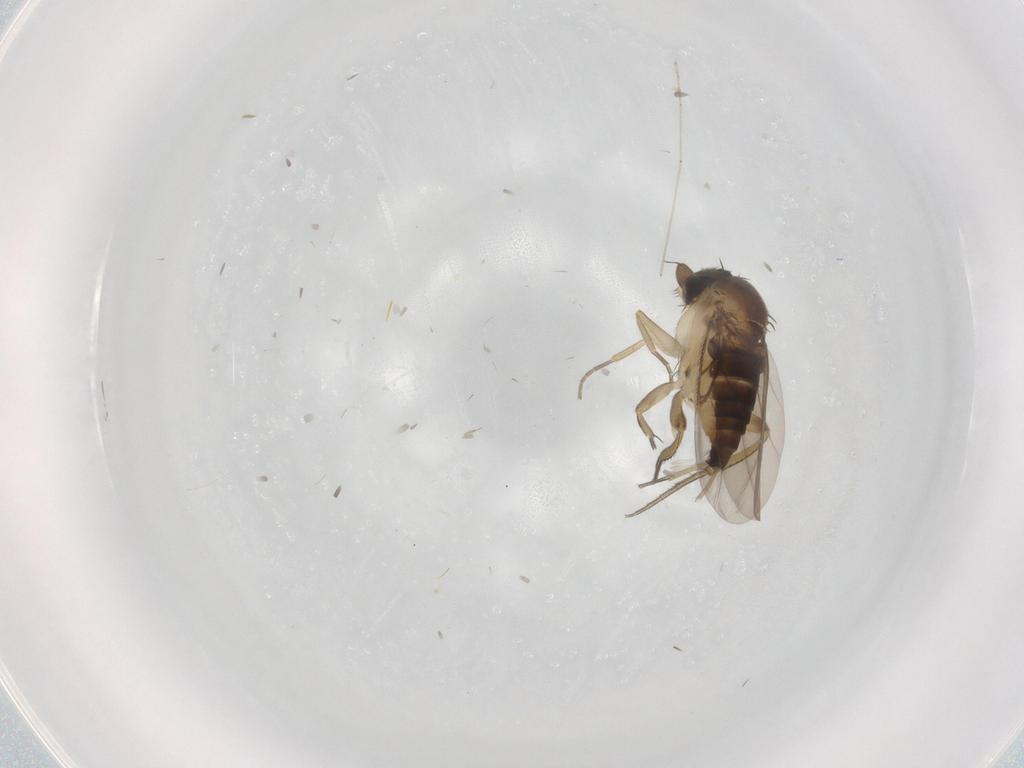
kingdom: Animalia
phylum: Arthropoda
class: Insecta
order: Diptera
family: Phoridae
